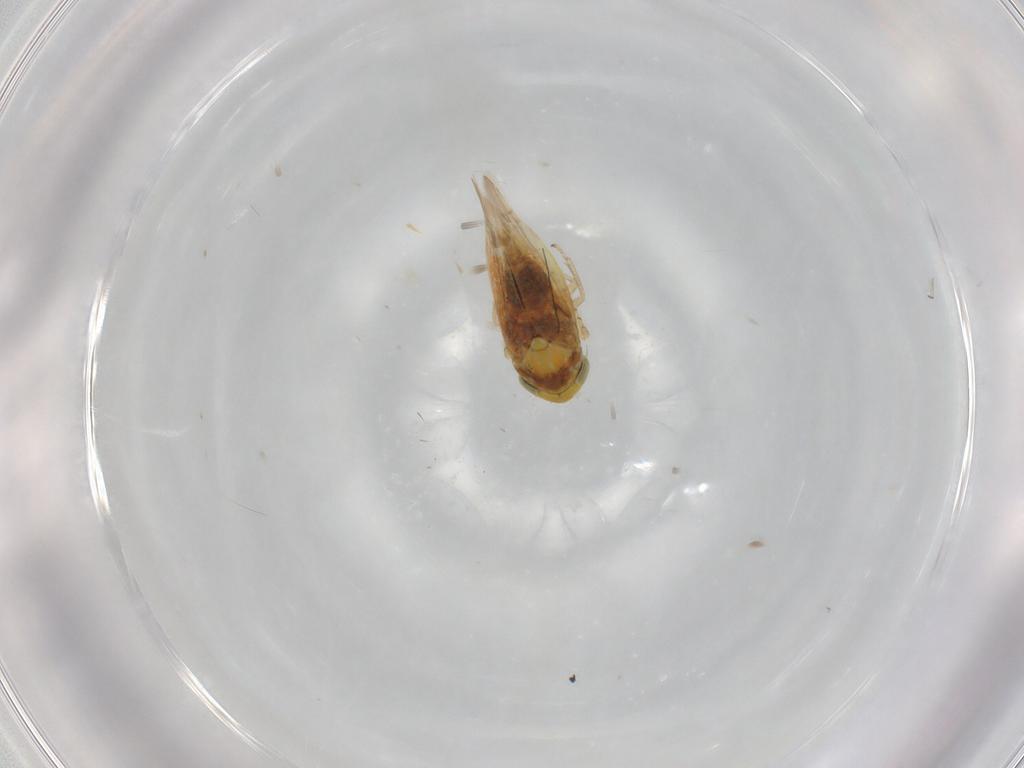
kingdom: Animalia
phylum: Arthropoda
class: Insecta
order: Hemiptera
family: Cicadellidae
